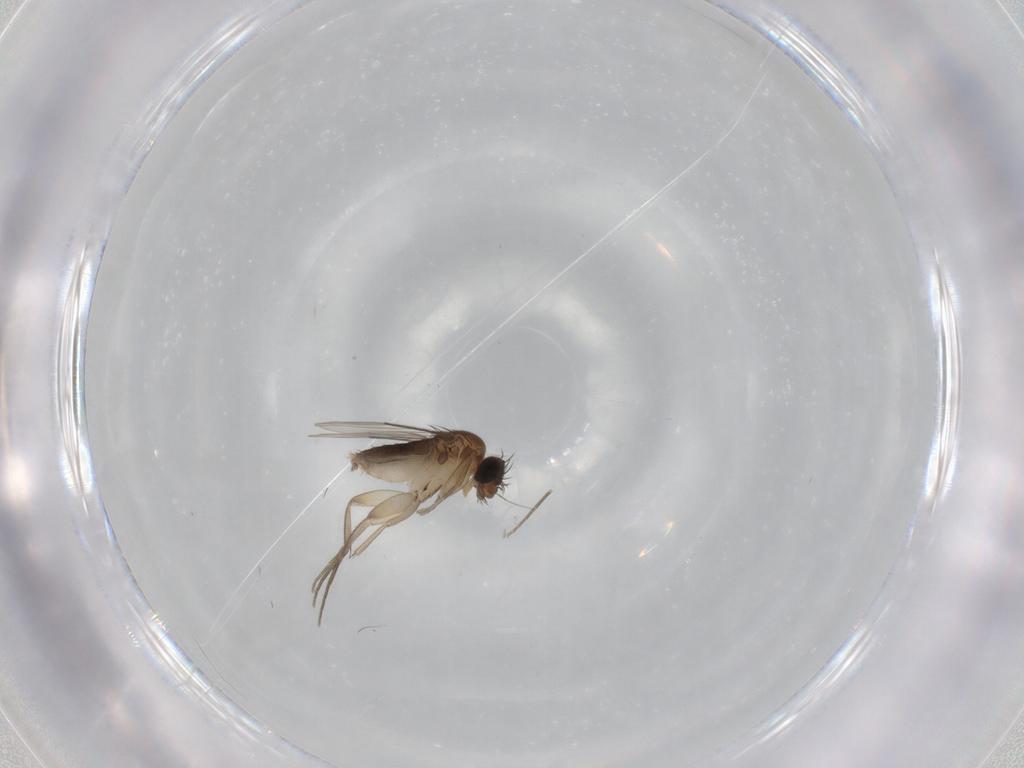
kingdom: Animalia
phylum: Arthropoda
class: Insecta
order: Diptera
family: Phoridae
